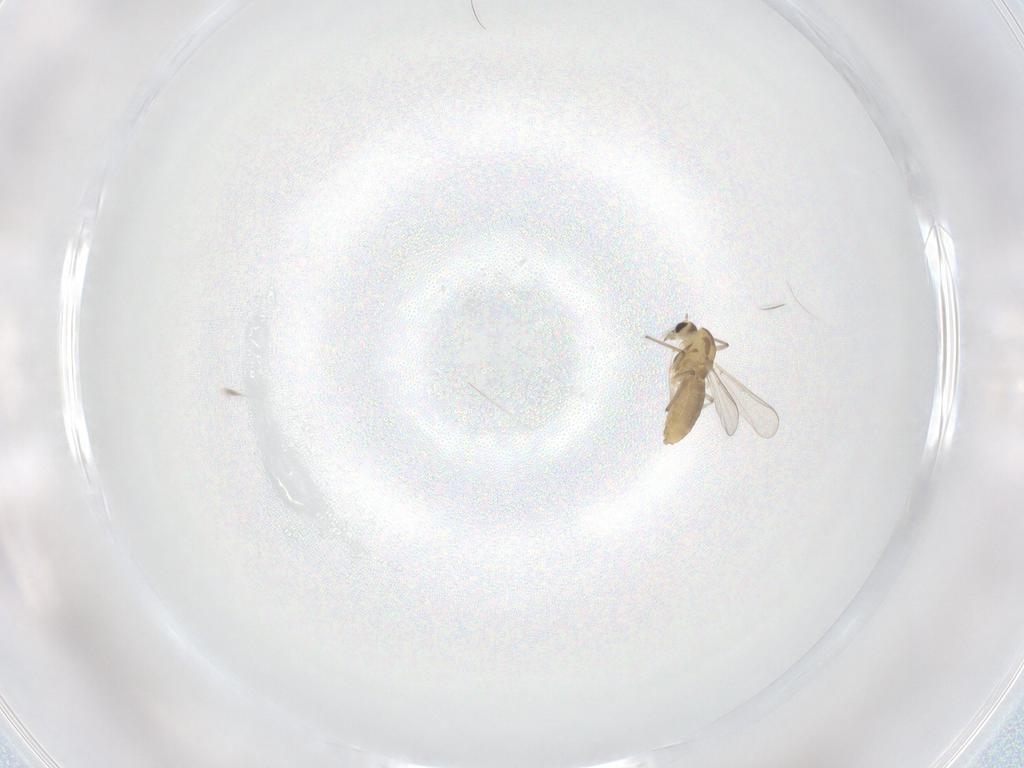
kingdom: Animalia
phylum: Arthropoda
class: Insecta
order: Diptera
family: Chironomidae
